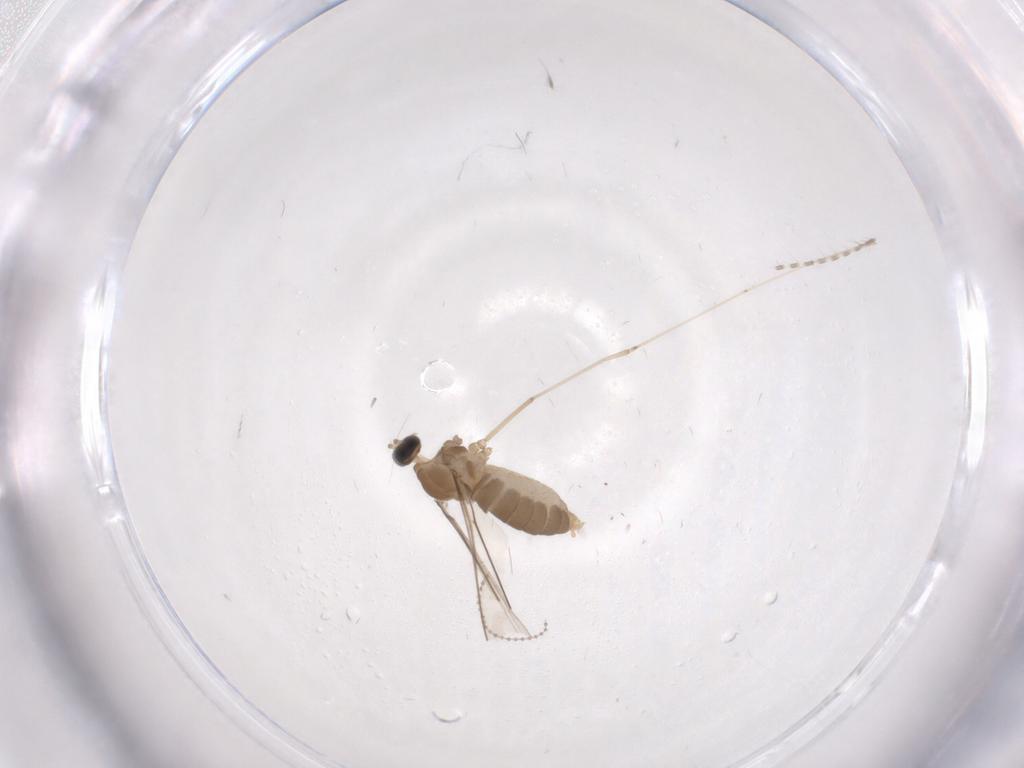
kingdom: Animalia
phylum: Arthropoda
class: Insecta
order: Diptera
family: Cecidomyiidae
